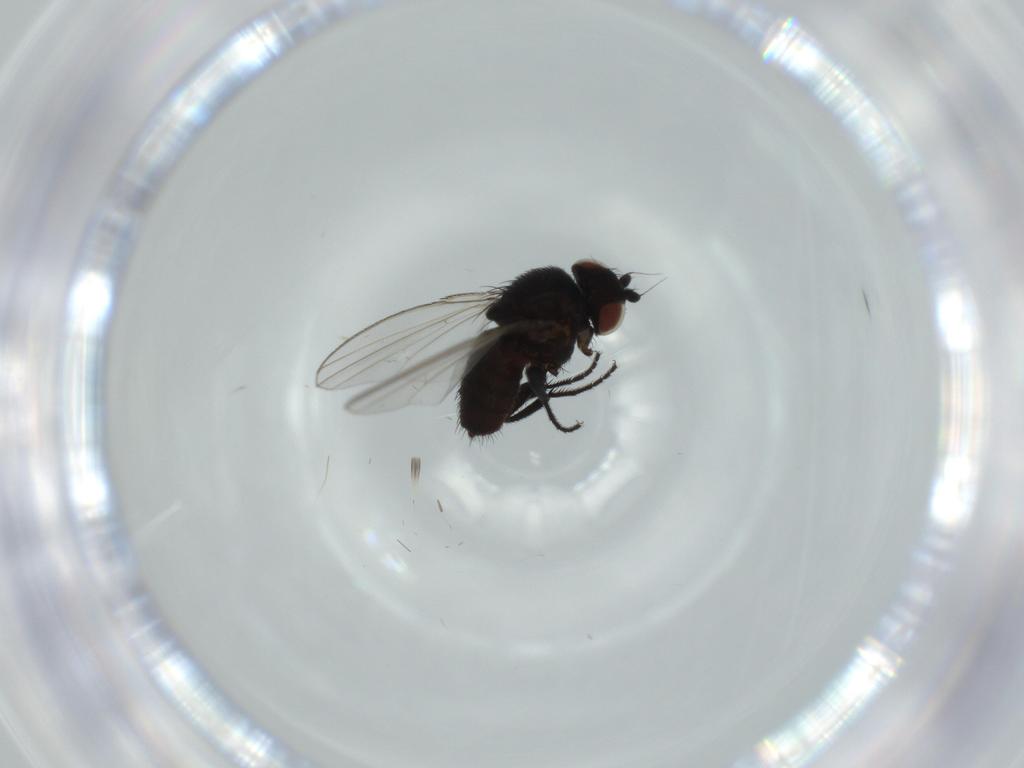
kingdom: Animalia
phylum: Arthropoda
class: Insecta
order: Diptera
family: Milichiidae
